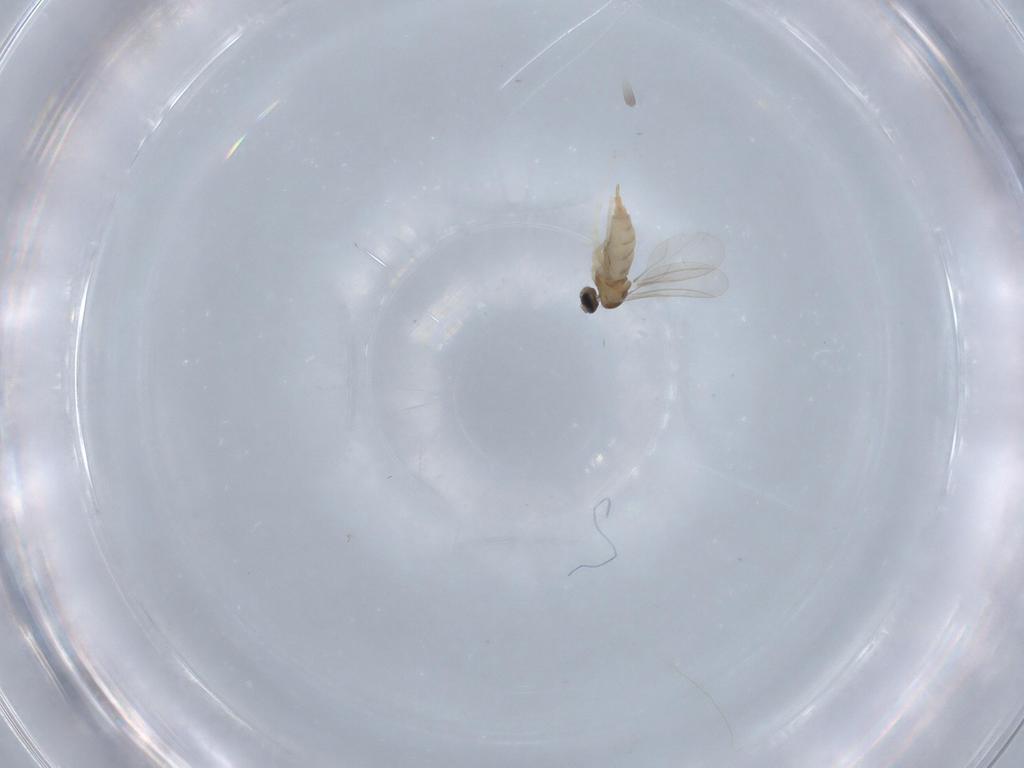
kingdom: Animalia
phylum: Arthropoda
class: Insecta
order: Diptera
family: Cecidomyiidae
